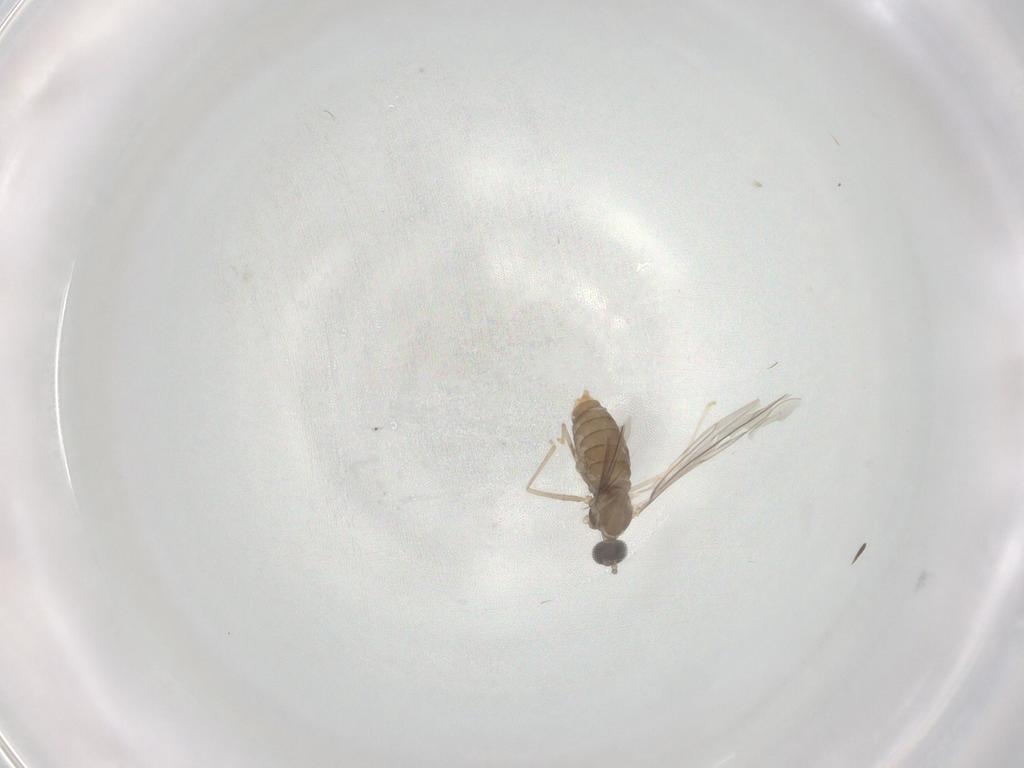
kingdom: Animalia
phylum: Arthropoda
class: Insecta
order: Diptera
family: Cecidomyiidae
